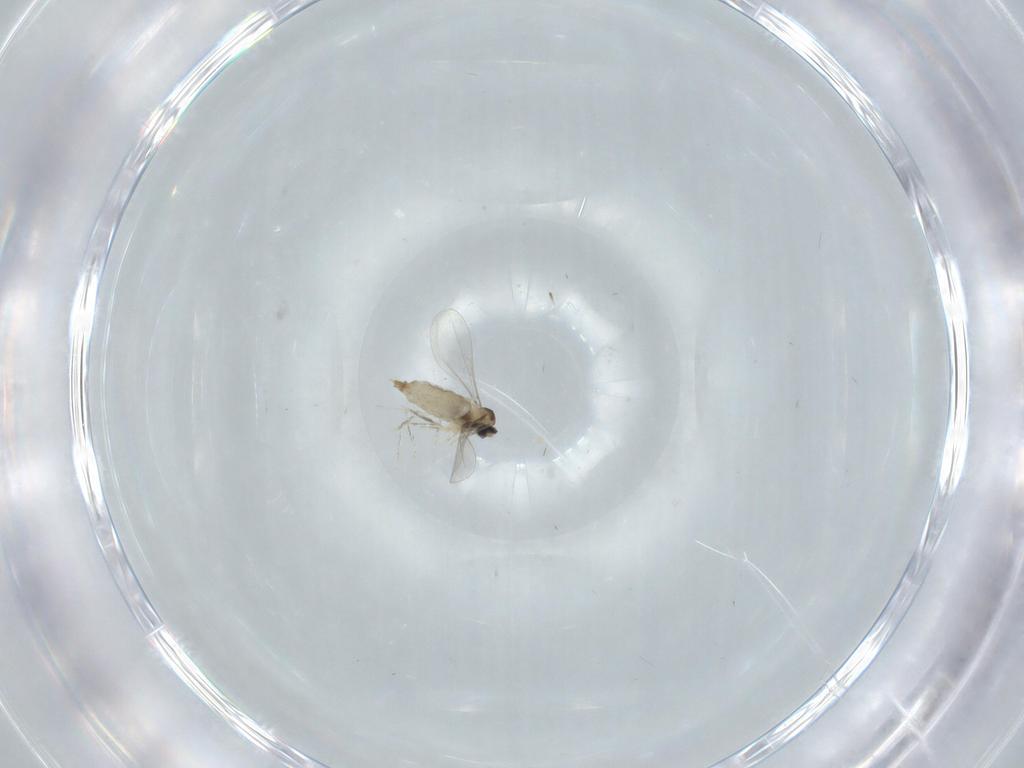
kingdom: Animalia
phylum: Arthropoda
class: Insecta
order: Diptera
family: Cecidomyiidae
